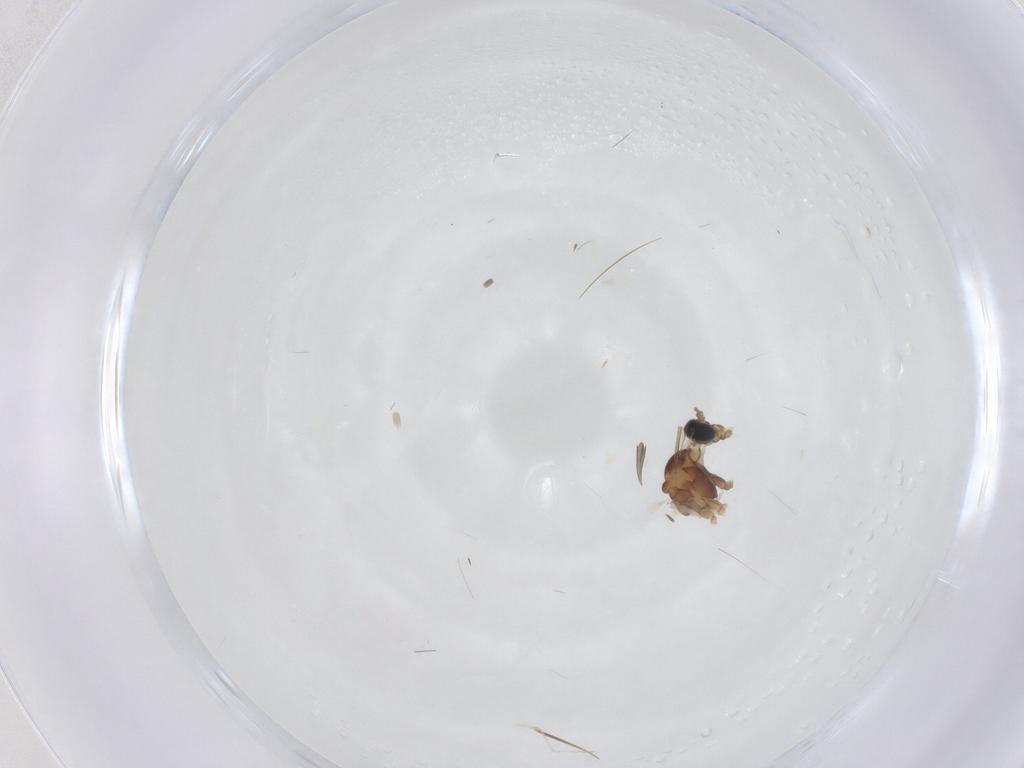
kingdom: Animalia
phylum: Arthropoda
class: Insecta
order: Diptera
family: Cecidomyiidae
